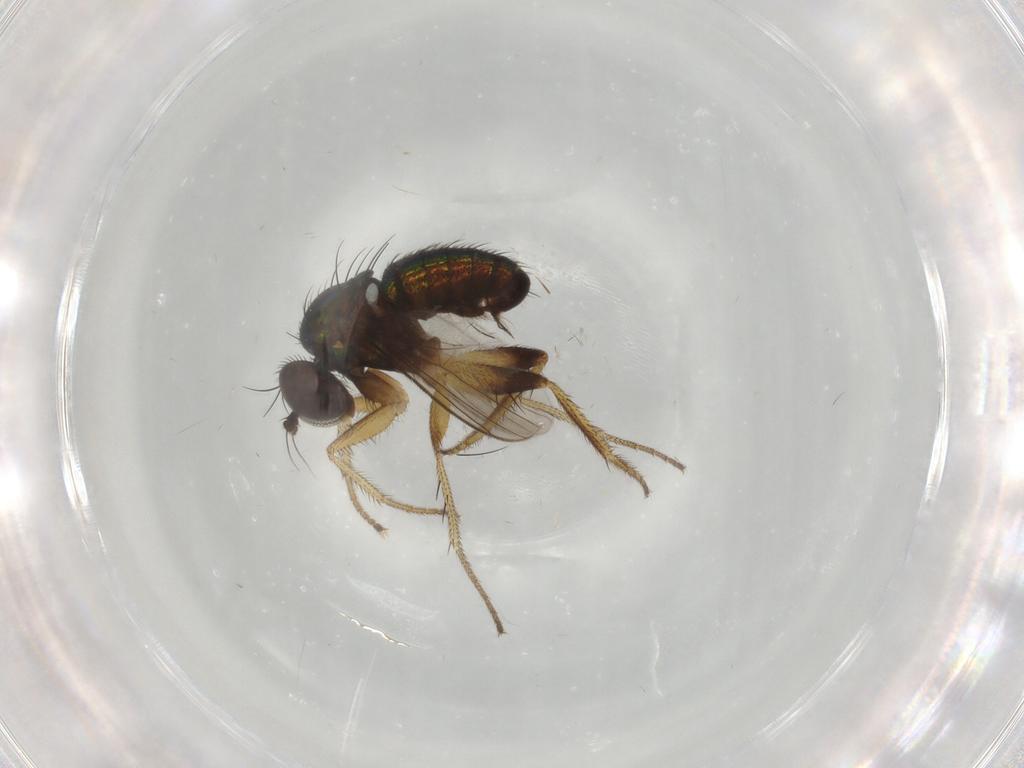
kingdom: Animalia
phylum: Arthropoda
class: Insecta
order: Diptera
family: Dolichopodidae
